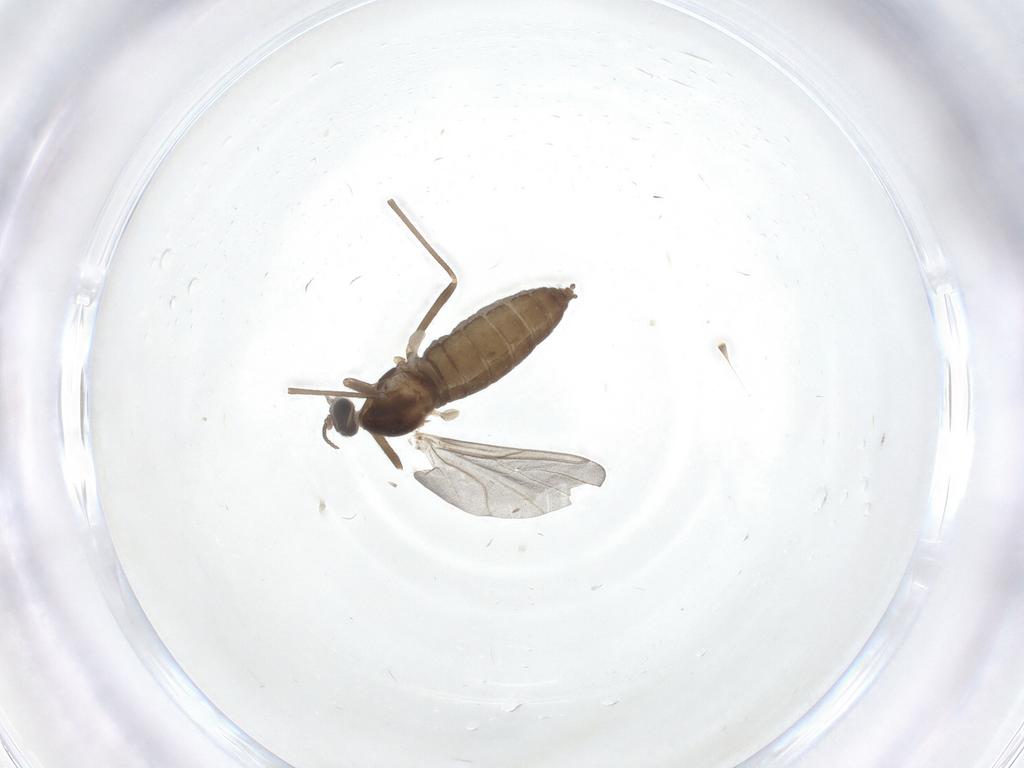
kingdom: Animalia
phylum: Arthropoda
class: Insecta
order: Diptera
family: Cecidomyiidae
